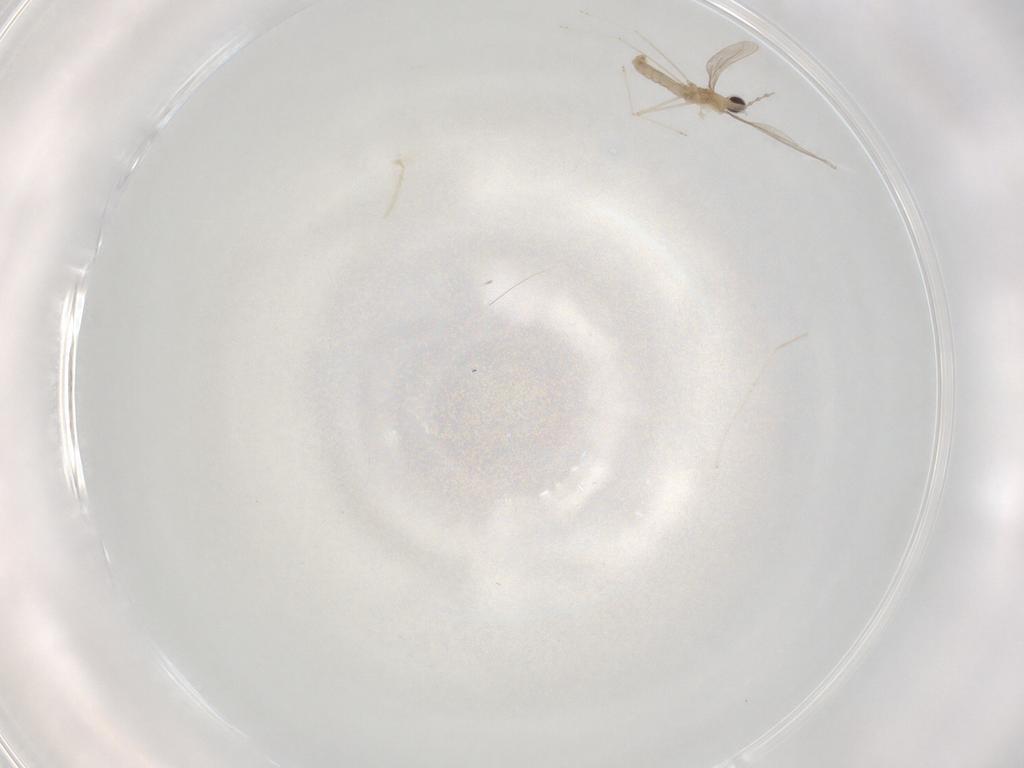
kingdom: Animalia
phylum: Arthropoda
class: Insecta
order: Diptera
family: Cecidomyiidae
